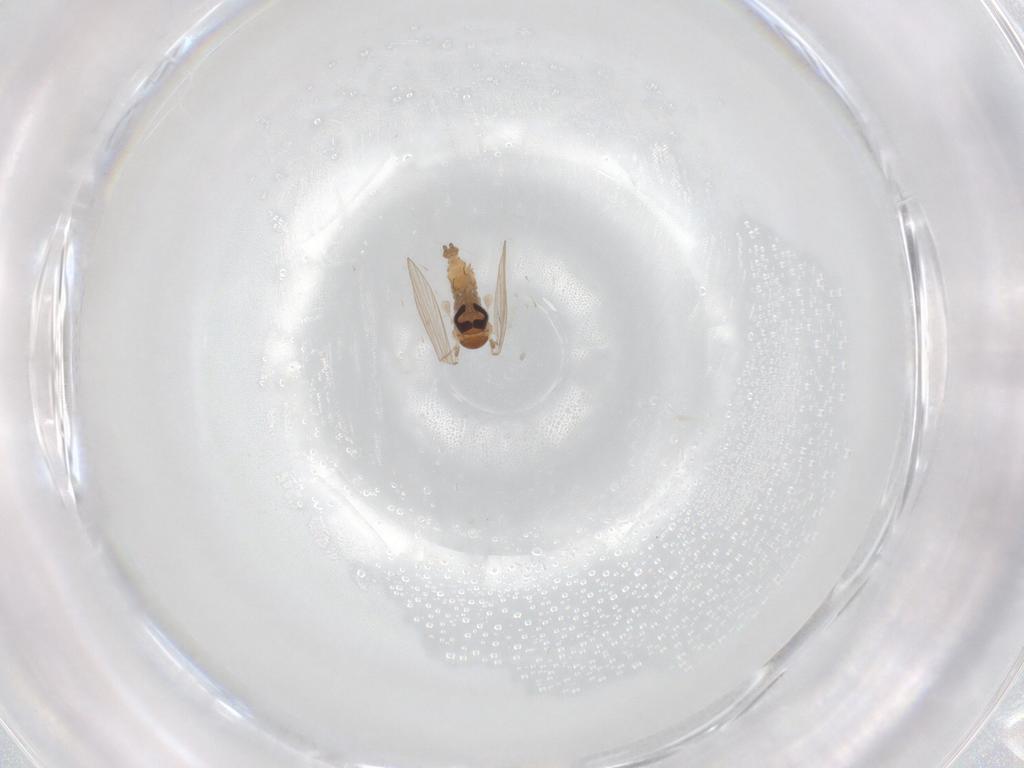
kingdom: Animalia
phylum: Arthropoda
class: Insecta
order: Diptera
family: Psychodidae
